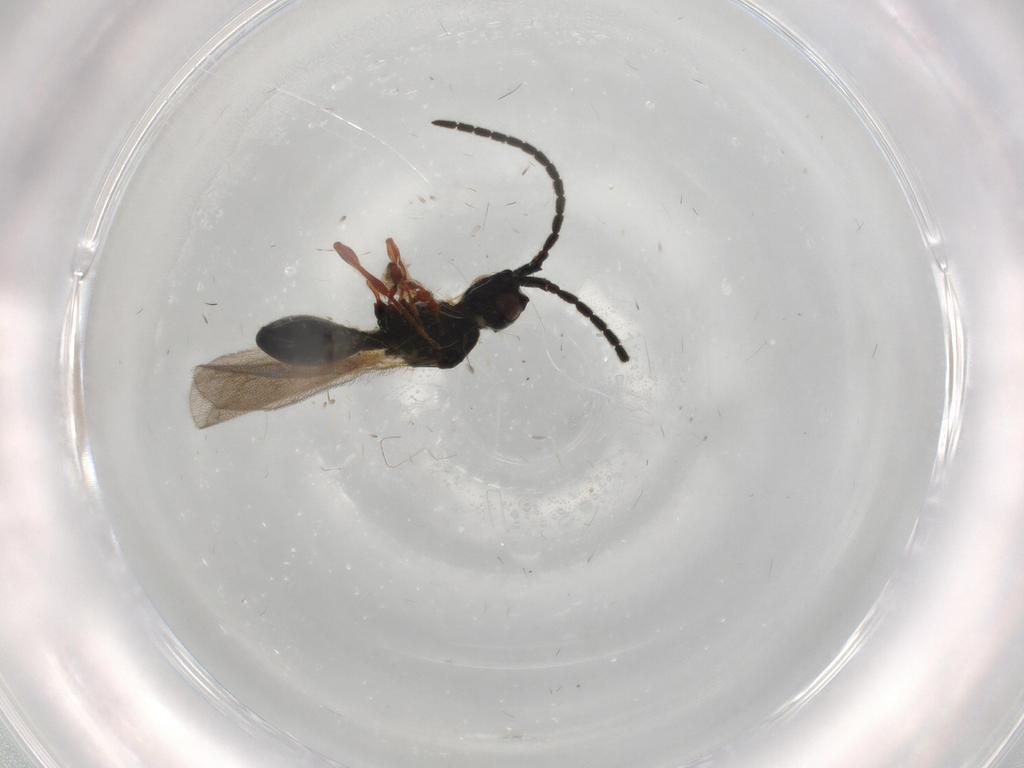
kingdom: Animalia
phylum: Arthropoda
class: Insecta
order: Hymenoptera
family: Diapriidae
